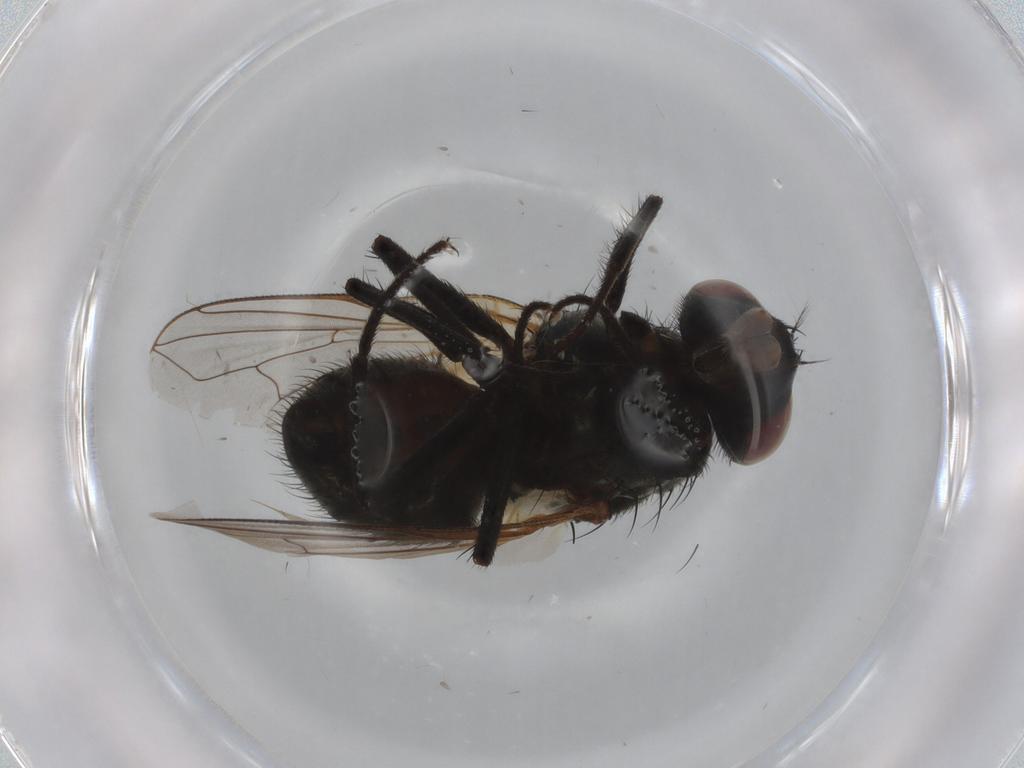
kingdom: Animalia
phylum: Arthropoda
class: Insecta
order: Diptera
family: Muscidae
